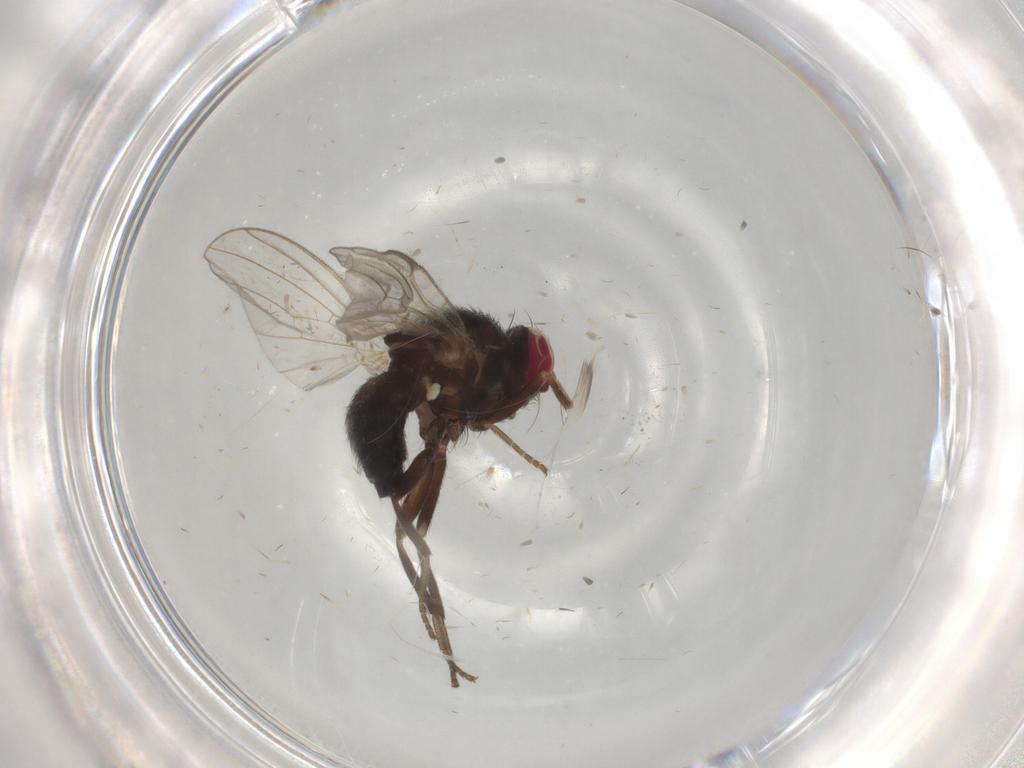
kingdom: Animalia
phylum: Arthropoda
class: Insecta
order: Diptera
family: Agromyzidae
